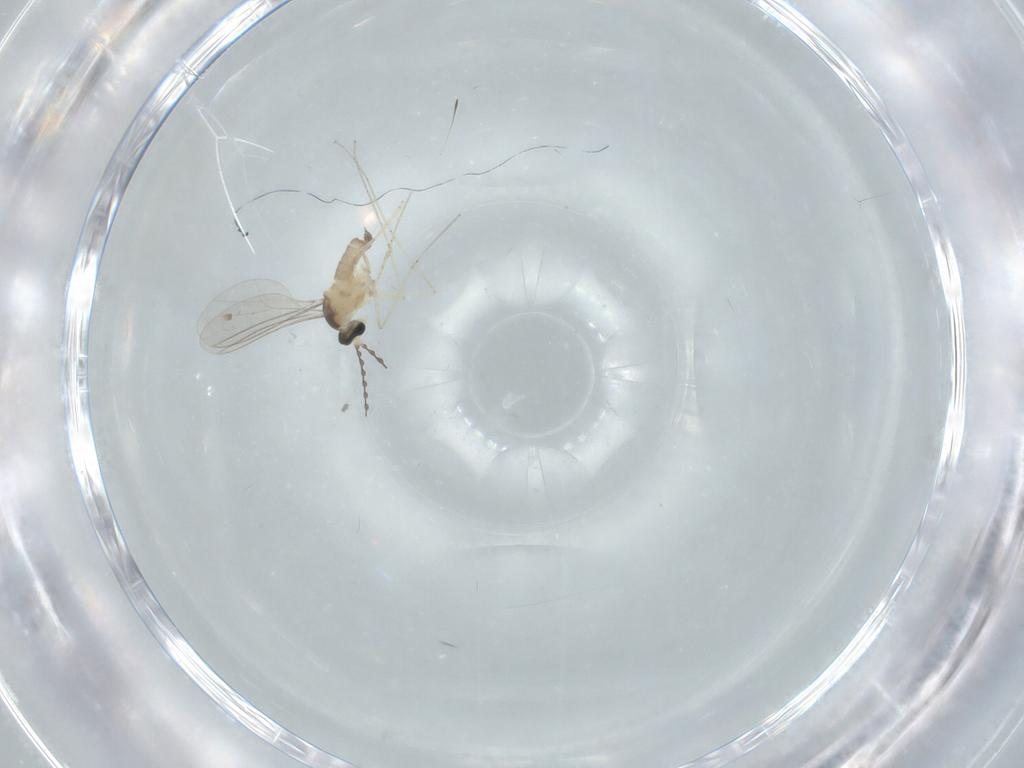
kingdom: Animalia
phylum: Arthropoda
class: Insecta
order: Diptera
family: Cecidomyiidae
